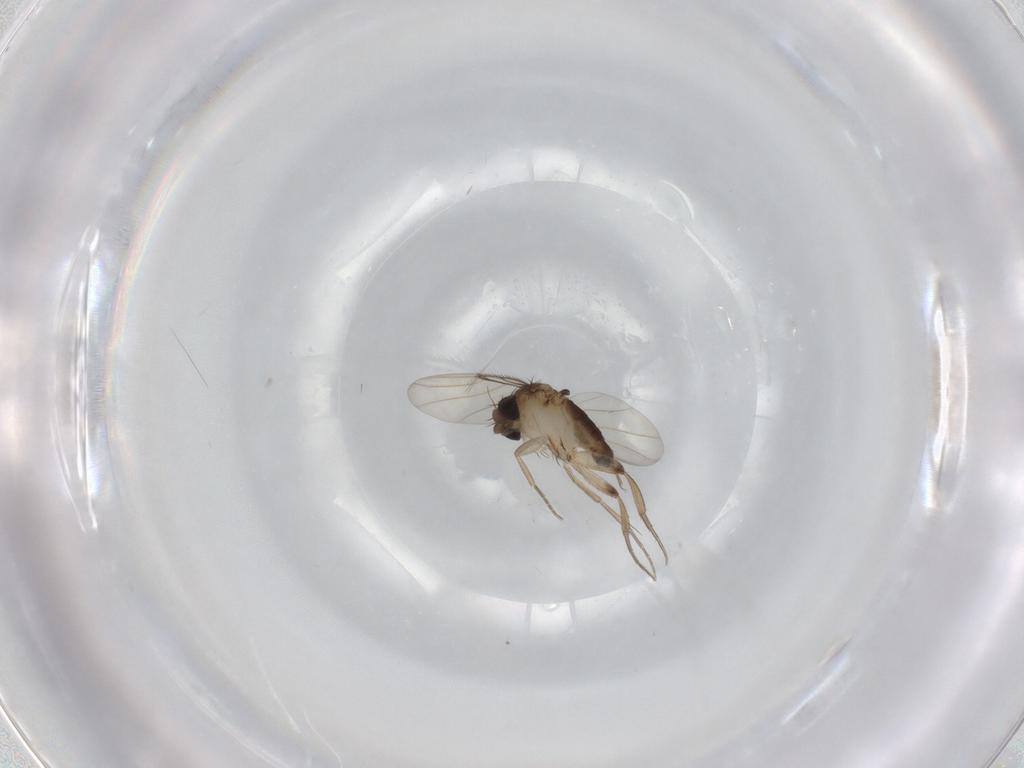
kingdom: Animalia
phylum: Arthropoda
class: Insecta
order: Diptera
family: Phoridae
